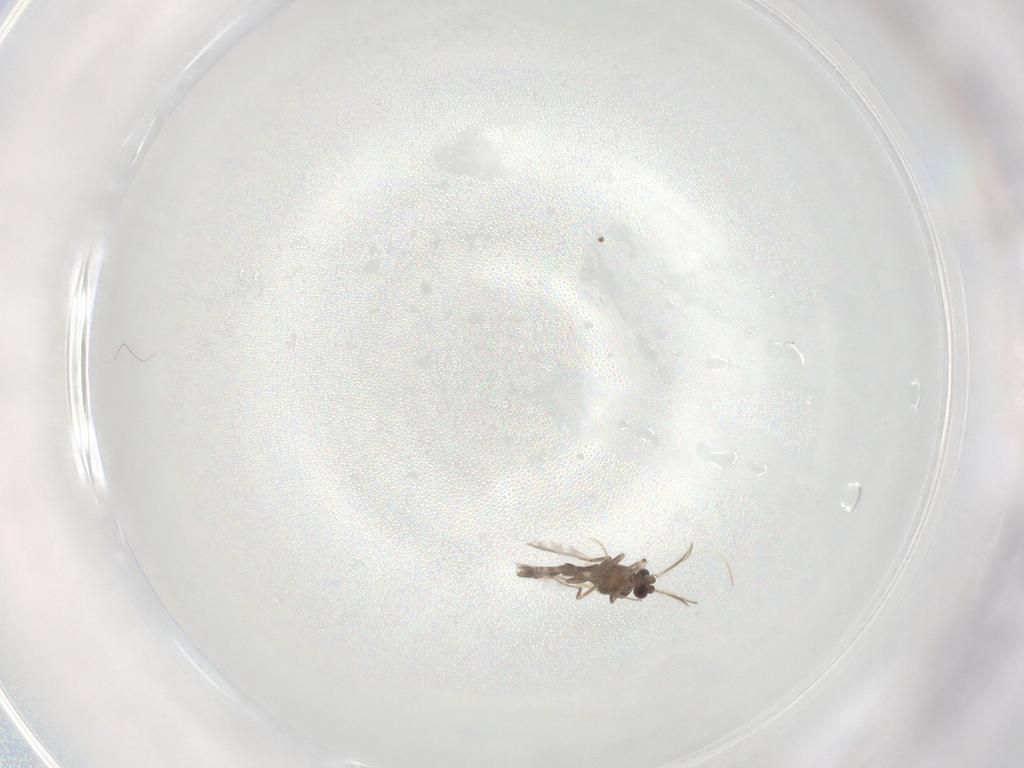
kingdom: Animalia
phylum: Arthropoda
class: Insecta
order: Diptera
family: Ceratopogonidae
